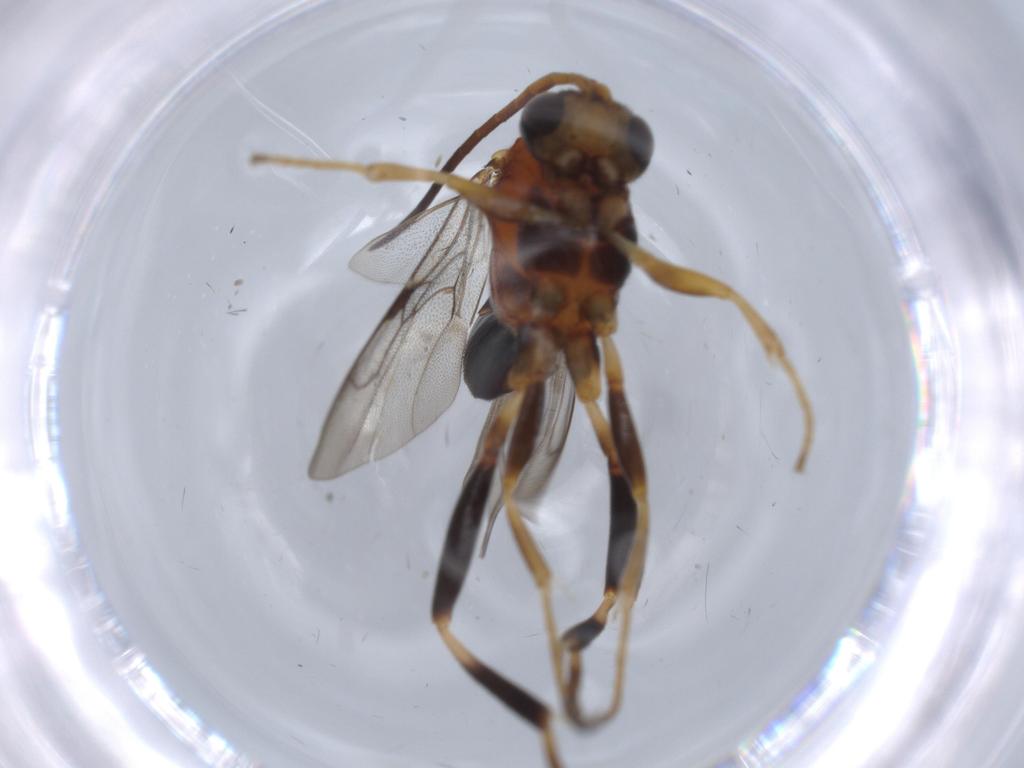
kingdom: Animalia
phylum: Arthropoda
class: Insecta
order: Hymenoptera
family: Evaniidae
